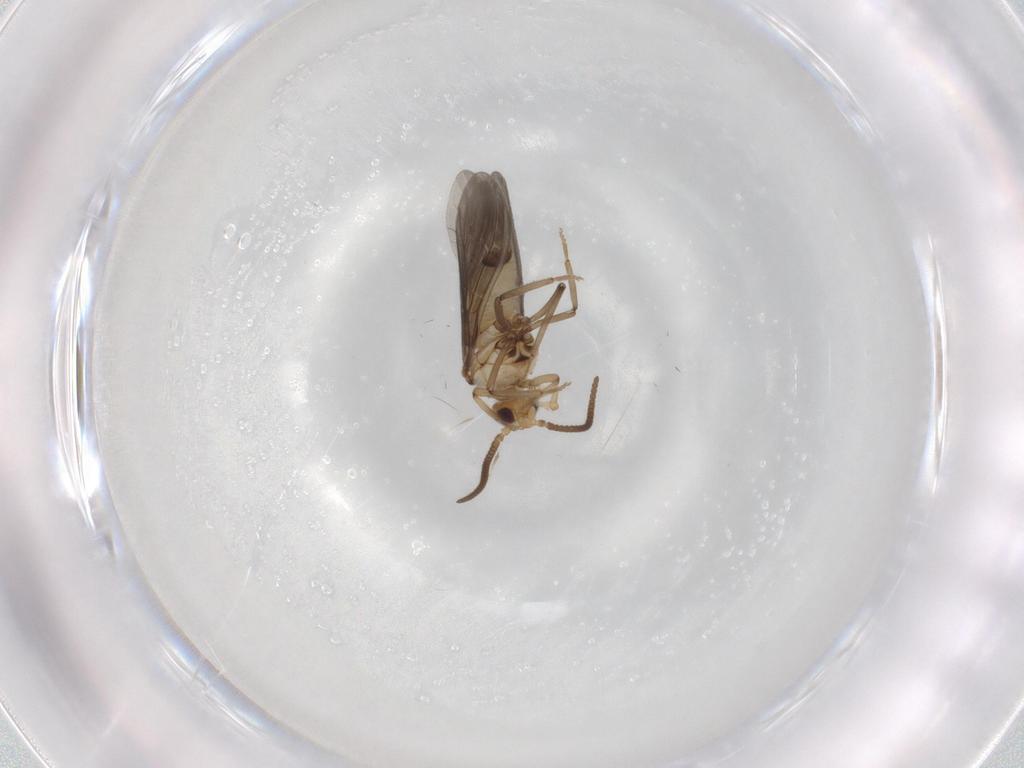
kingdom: Animalia
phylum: Arthropoda
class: Insecta
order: Neuroptera
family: Coniopterygidae
